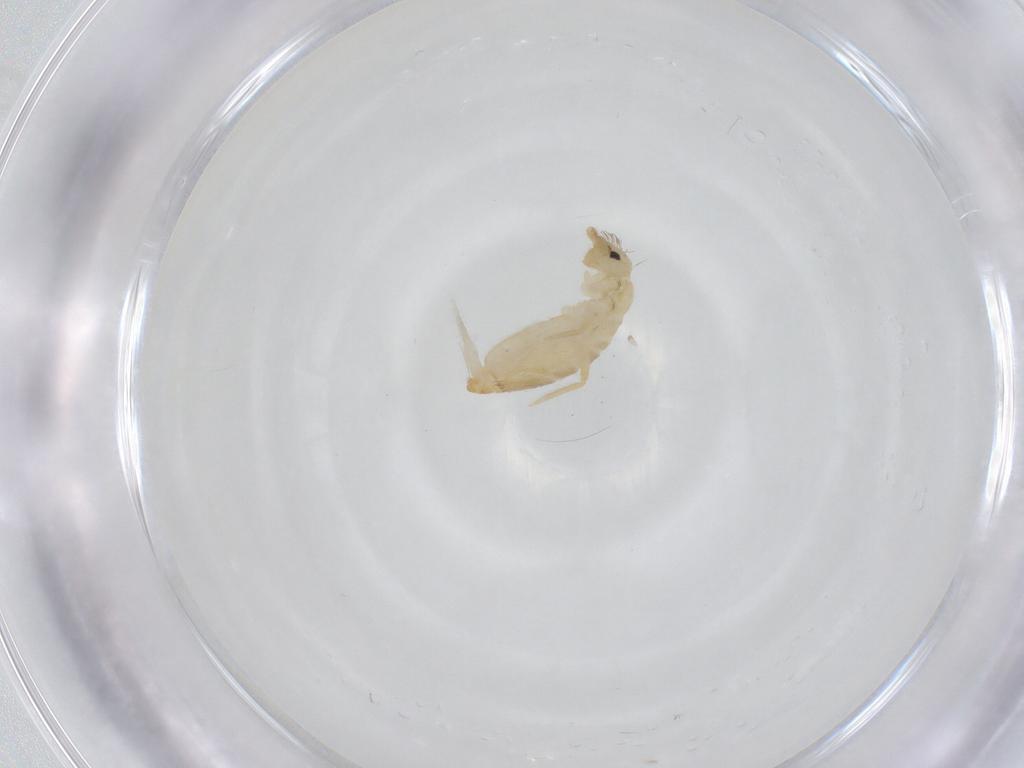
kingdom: Animalia
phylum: Arthropoda
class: Collembola
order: Entomobryomorpha
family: Entomobryidae
